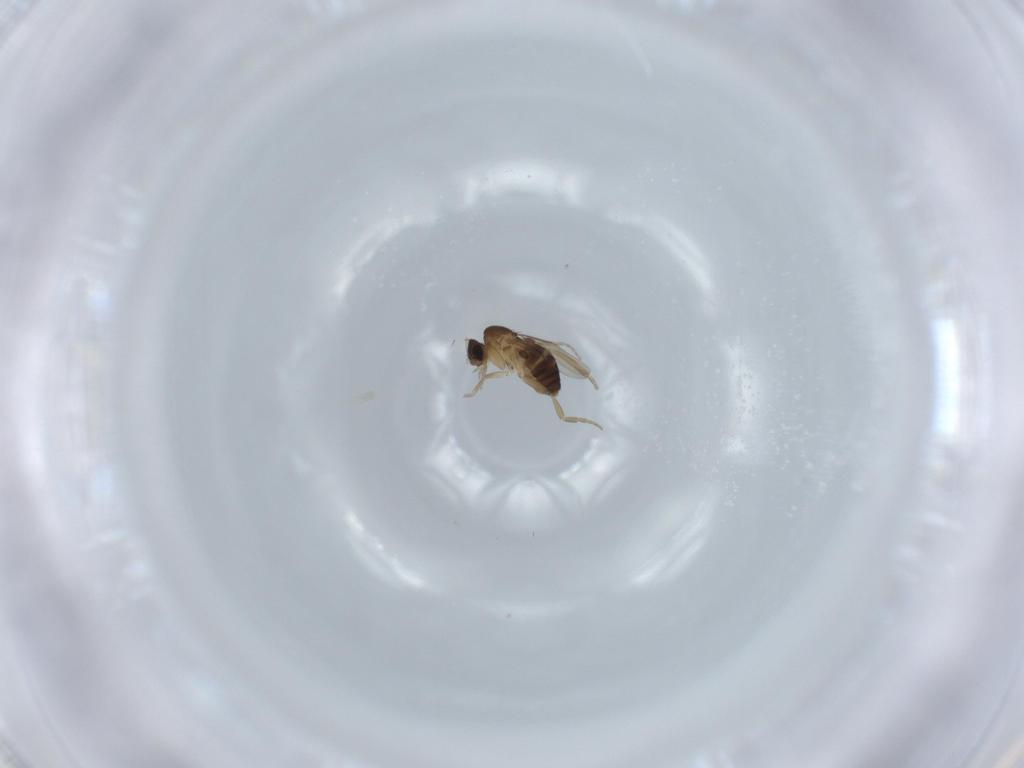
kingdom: Animalia
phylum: Arthropoda
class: Insecta
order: Diptera
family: Phoridae
